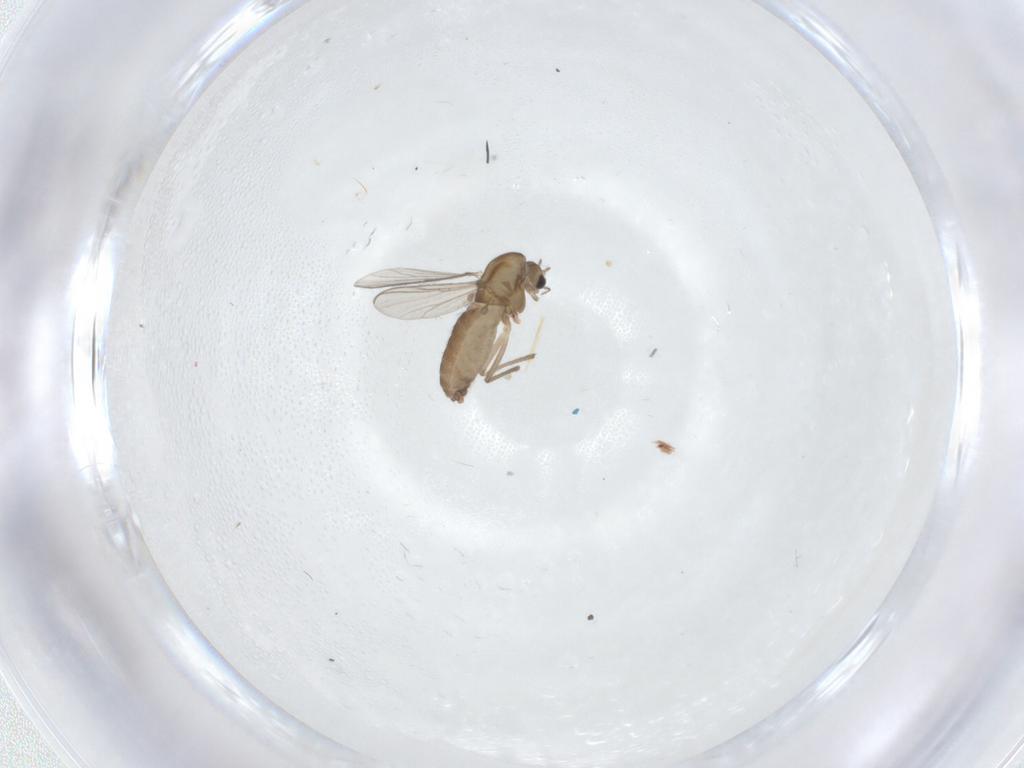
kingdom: Animalia
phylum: Arthropoda
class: Insecta
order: Diptera
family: Chironomidae
